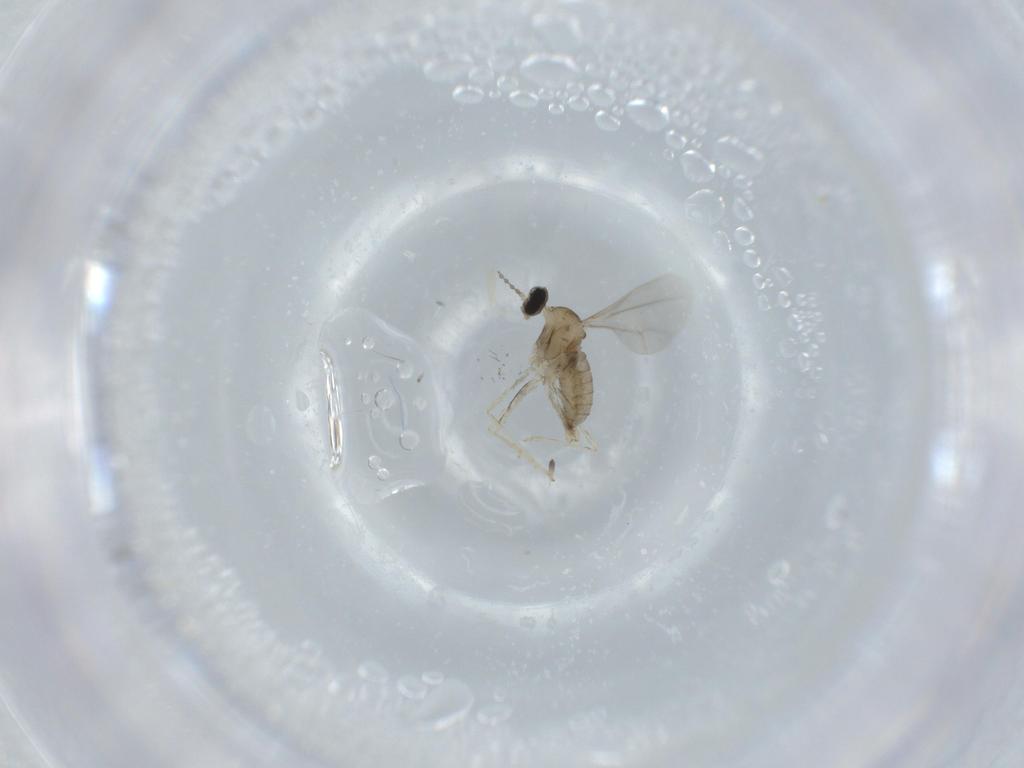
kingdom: Animalia
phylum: Arthropoda
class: Insecta
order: Diptera
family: Cecidomyiidae
